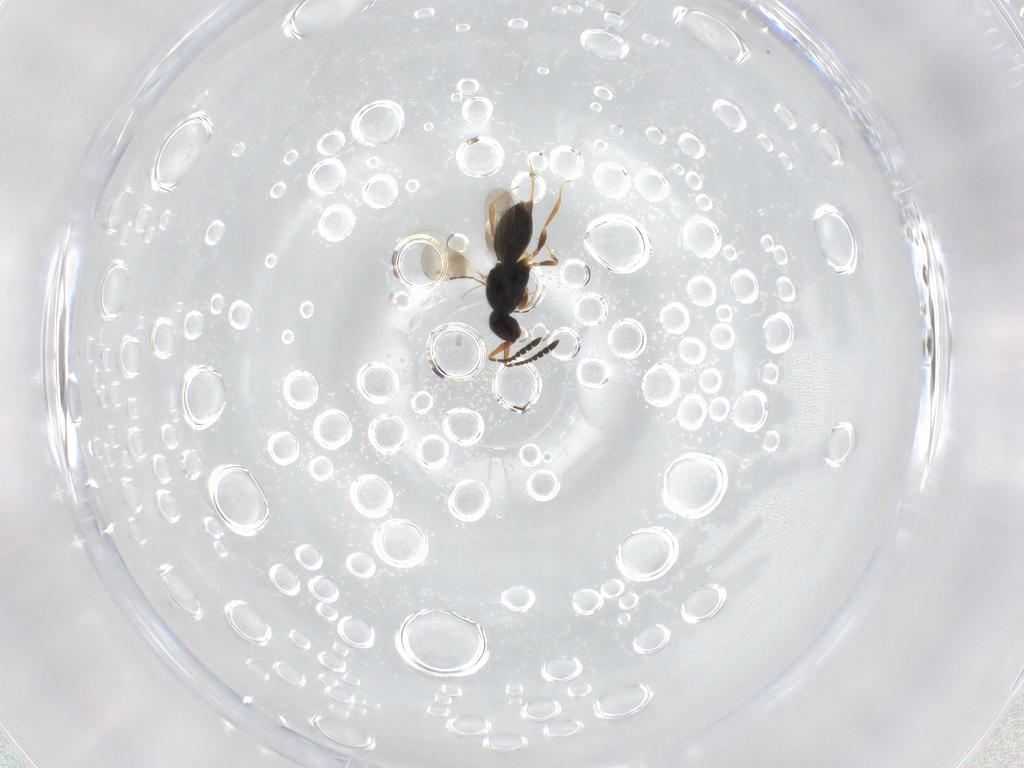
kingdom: Animalia
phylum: Arthropoda
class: Insecta
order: Hymenoptera
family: Ceraphronidae
